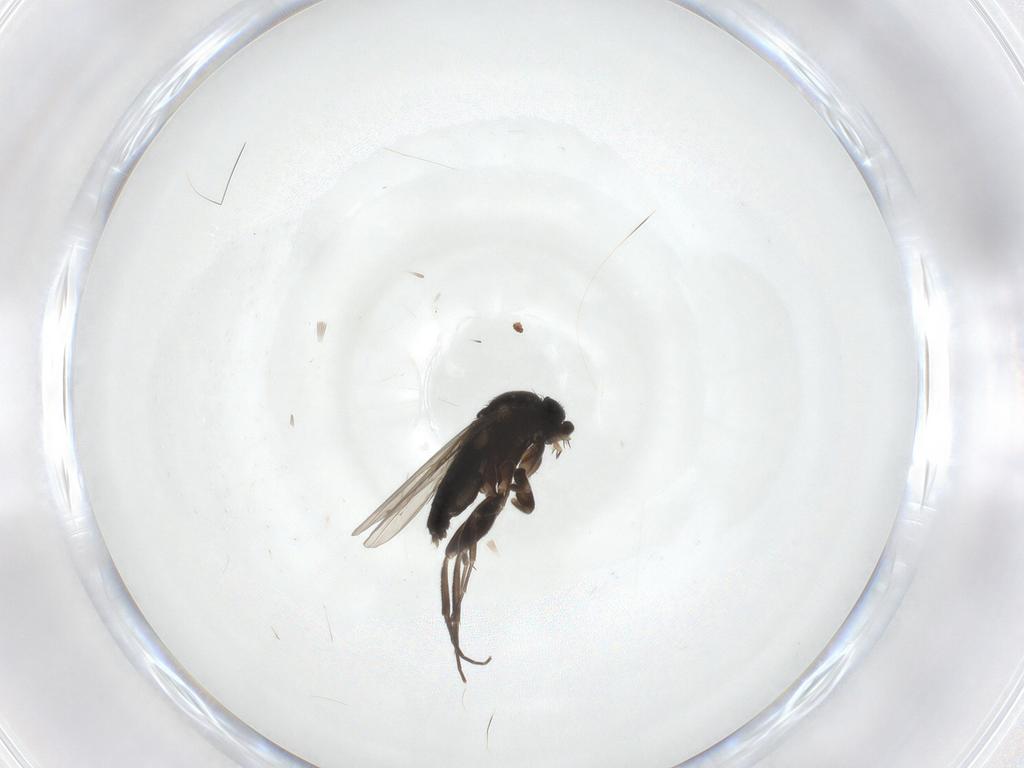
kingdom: Animalia
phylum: Arthropoda
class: Insecta
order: Diptera
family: Phoridae
